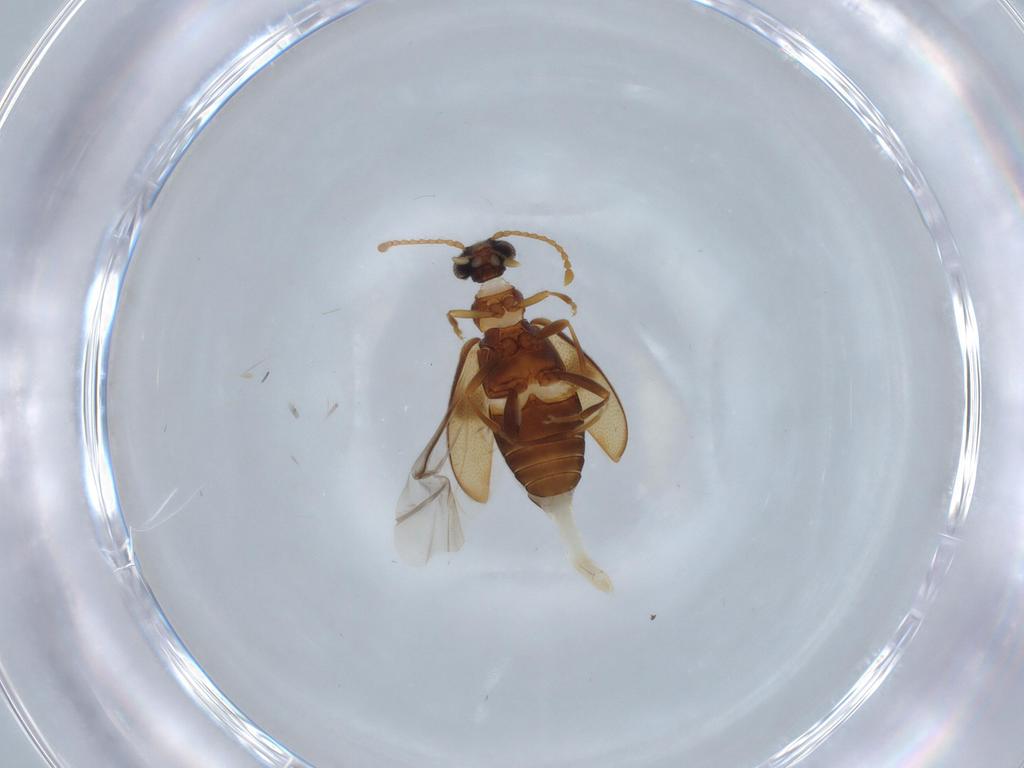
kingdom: Animalia
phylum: Arthropoda
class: Insecta
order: Coleoptera
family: Aderidae
